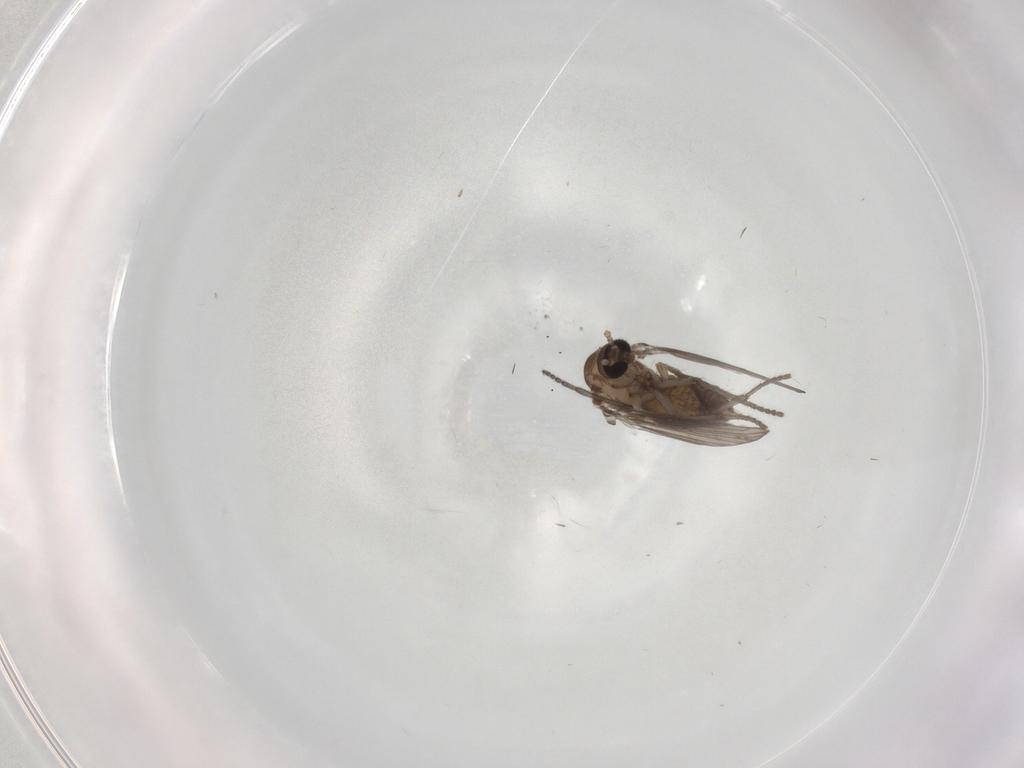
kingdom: Animalia
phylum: Arthropoda
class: Insecta
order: Diptera
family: Psychodidae
